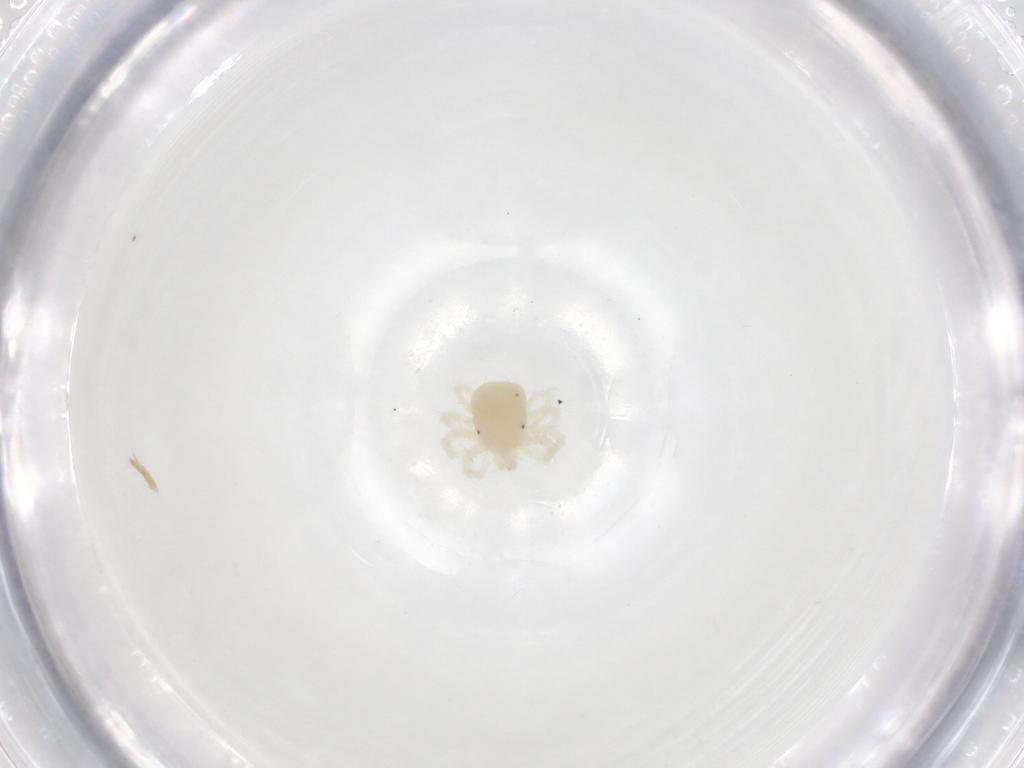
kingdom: Animalia
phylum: Arthropoda
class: Arachnida
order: Trombidiformes
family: Anystidae
